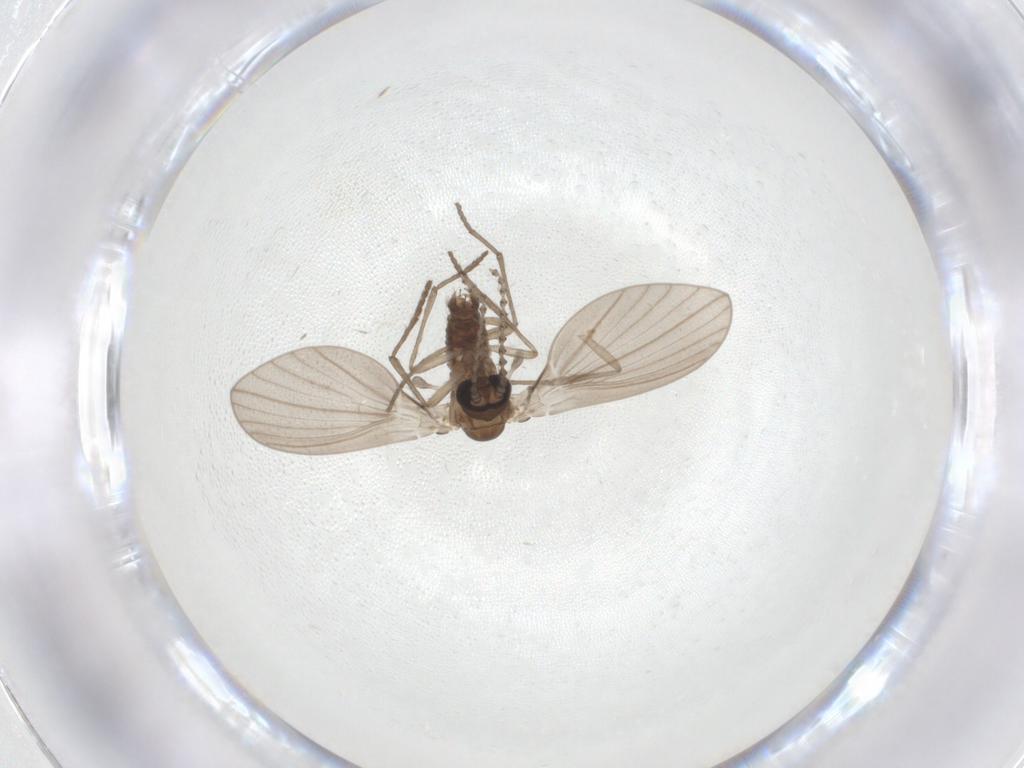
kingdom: Animalia
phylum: Arthropoda
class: Insecta
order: Diptera
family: Psychodidae
